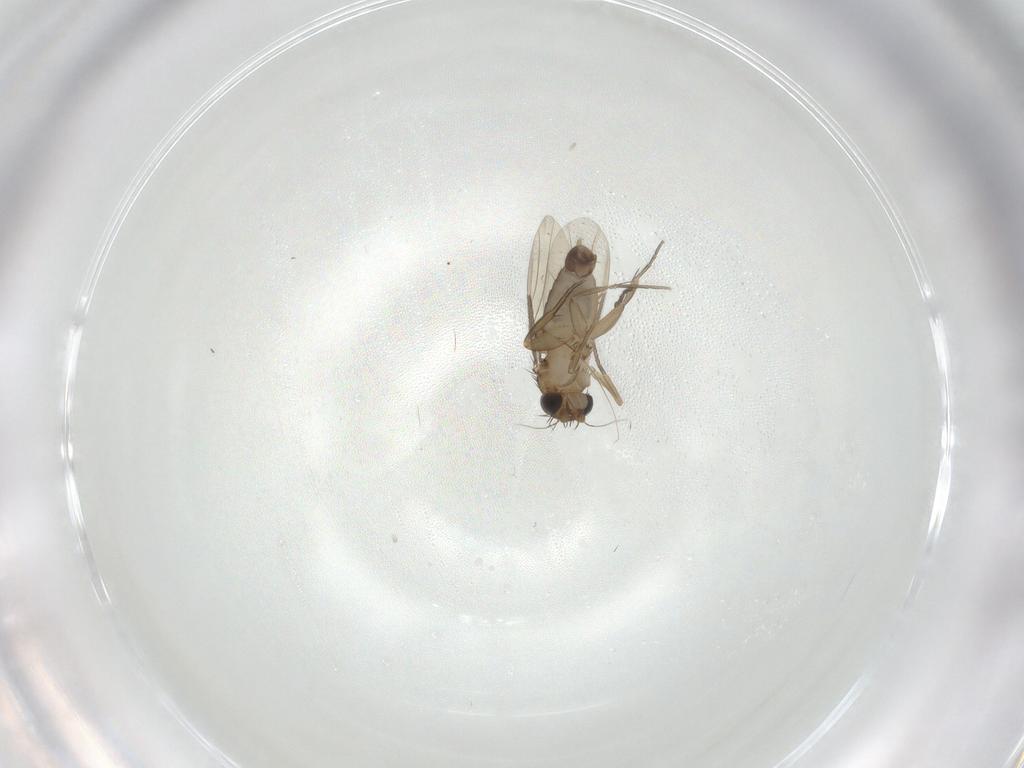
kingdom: Animalia
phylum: Arthropoda
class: Insecta
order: Diptera
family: Phoridae
